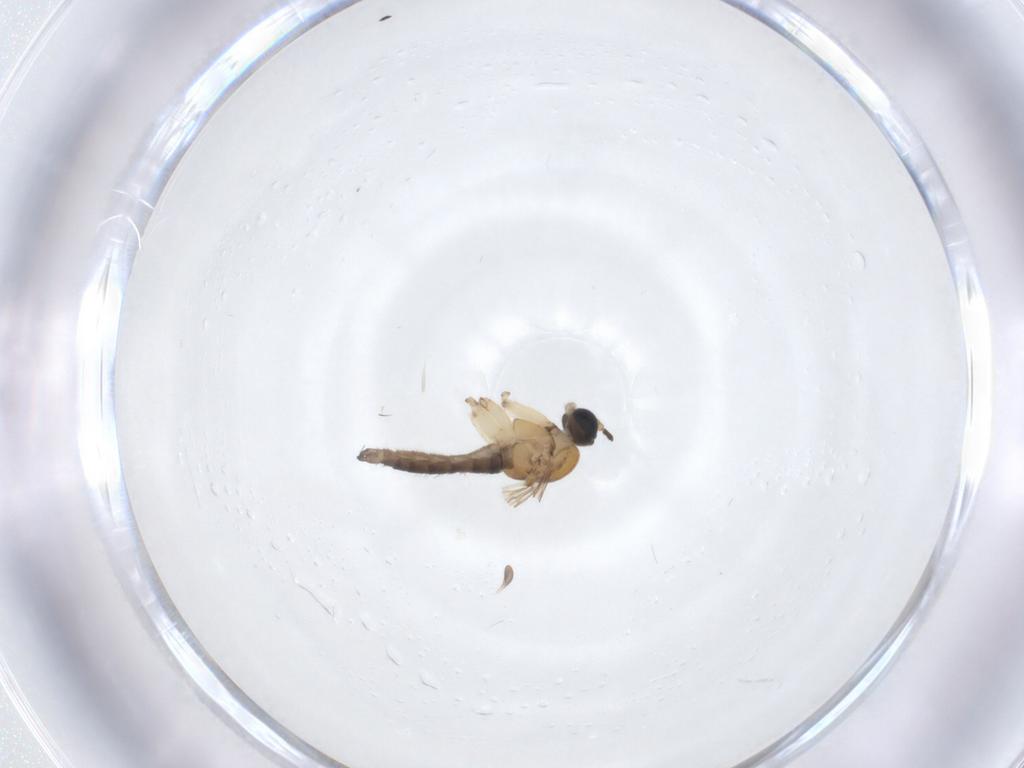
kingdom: Animalia
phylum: Arthropoda
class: Insecta
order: Diptera
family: Sciaridae
